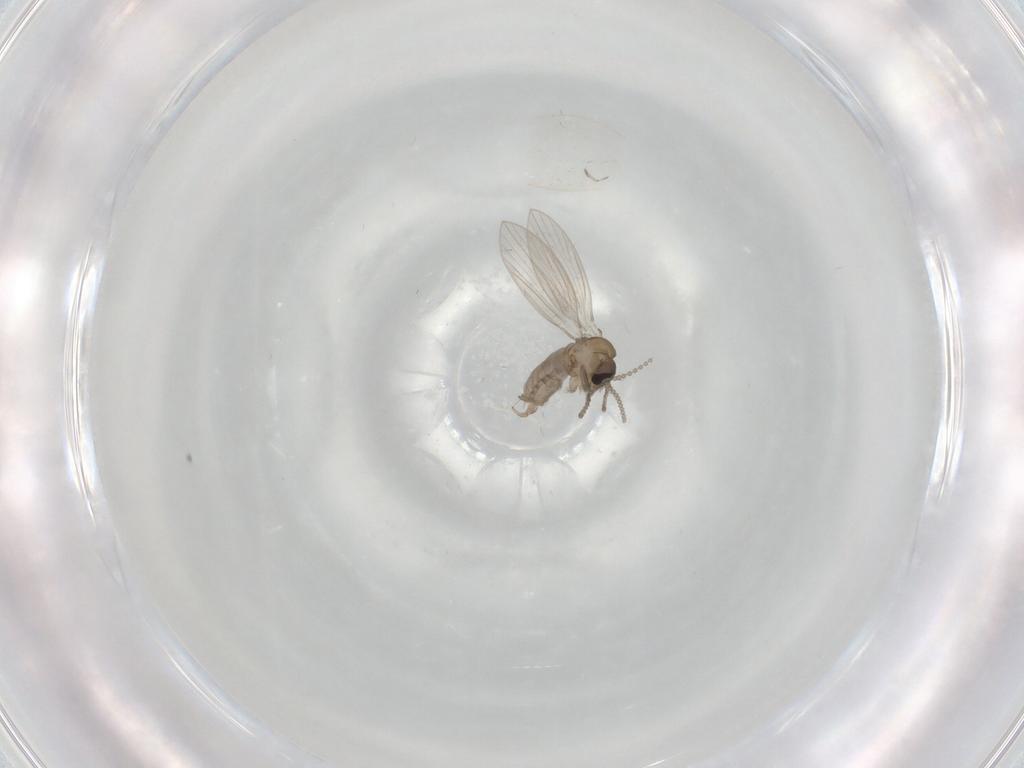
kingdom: Animalia
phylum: Arthropoda
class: Insecta
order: Diptera
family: Psychodidae
